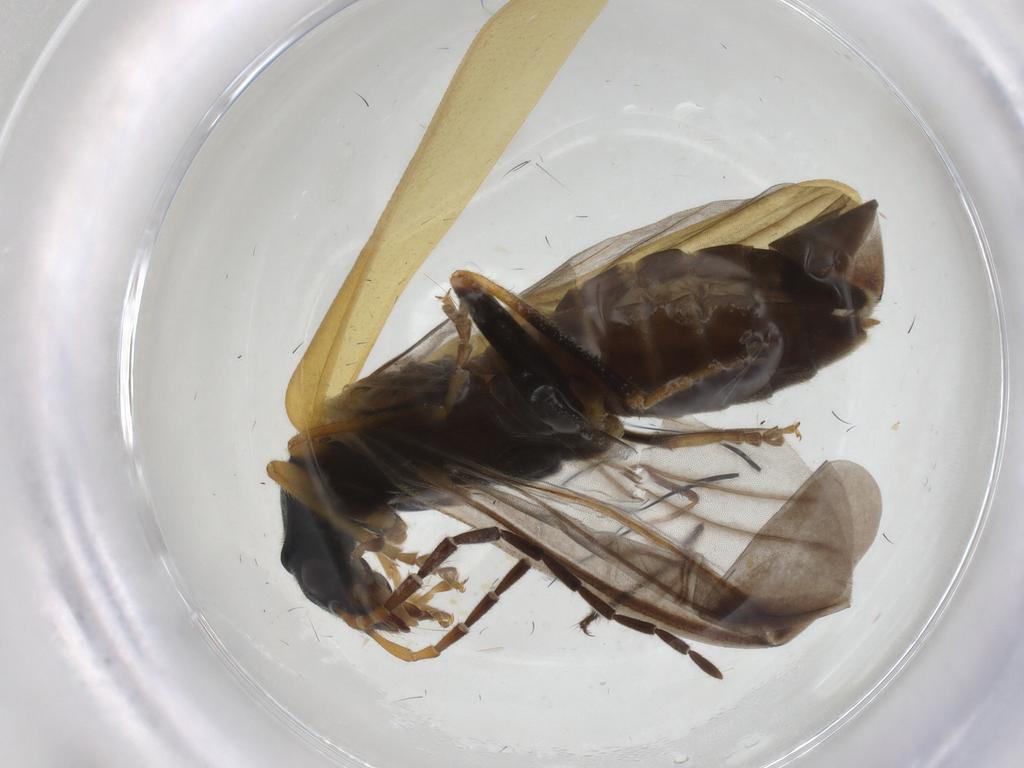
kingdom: Animalia
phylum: Arthropoda
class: Insecta
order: Coleoptera
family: Cantharidae
